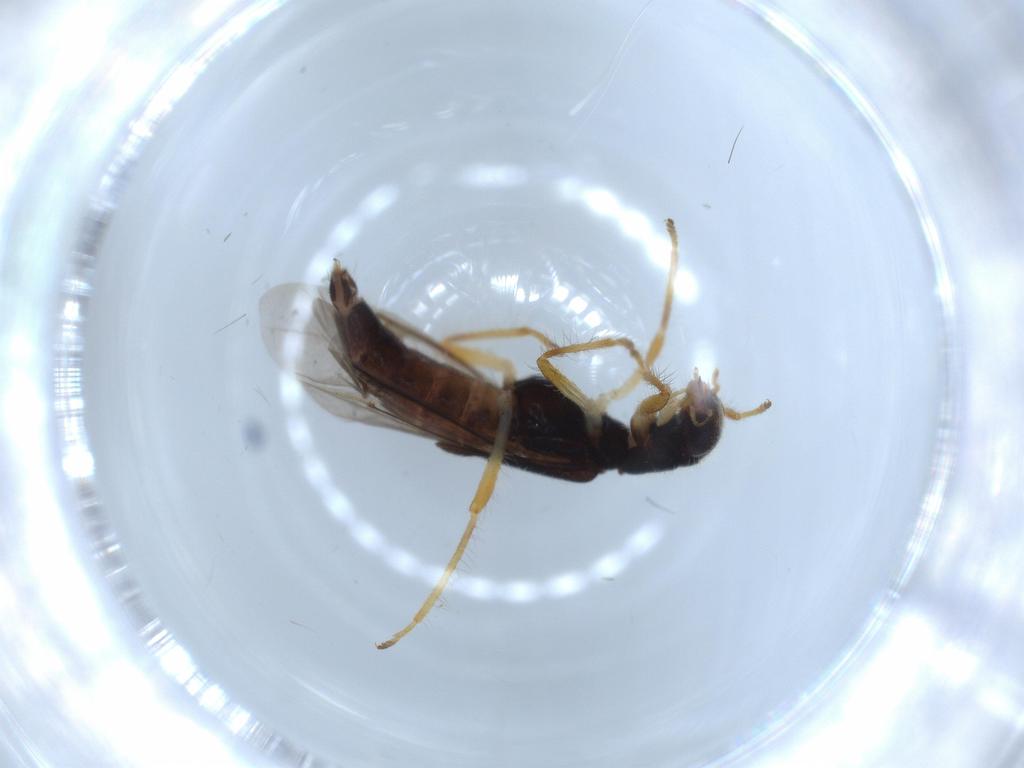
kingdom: Animalia
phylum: Arthropoda
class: Insecta
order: Coleoptera
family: Cleridae
